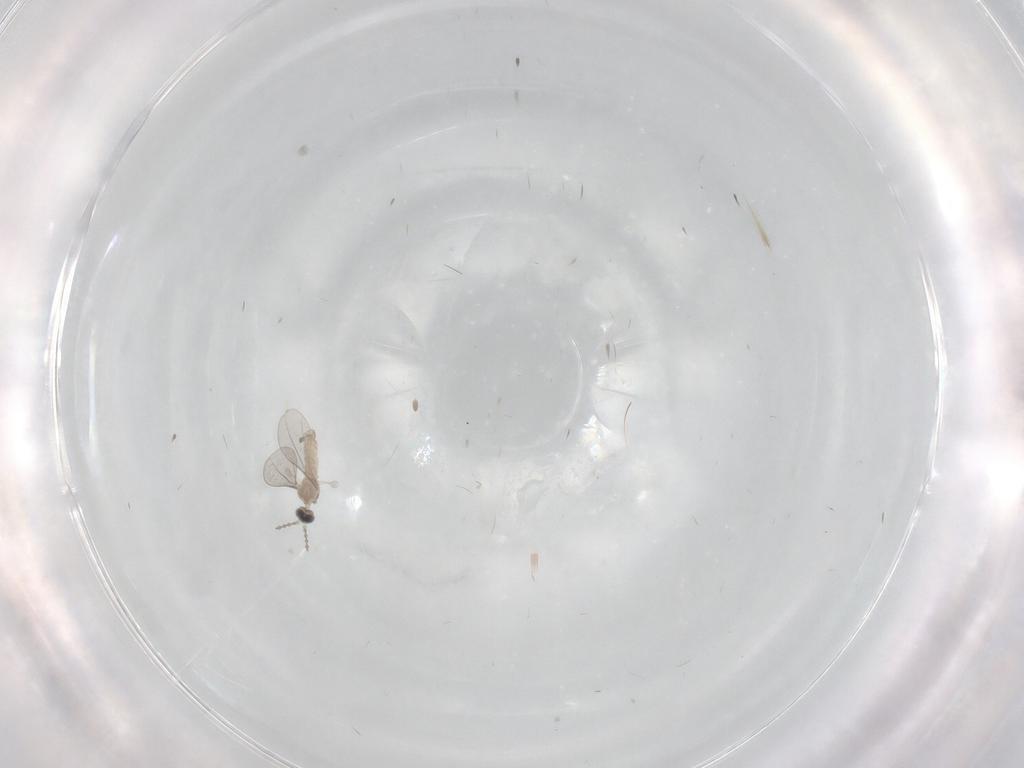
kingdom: Animalia
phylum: Arthropoda
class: Insecta
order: Diptera
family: Cecidomyiidae
